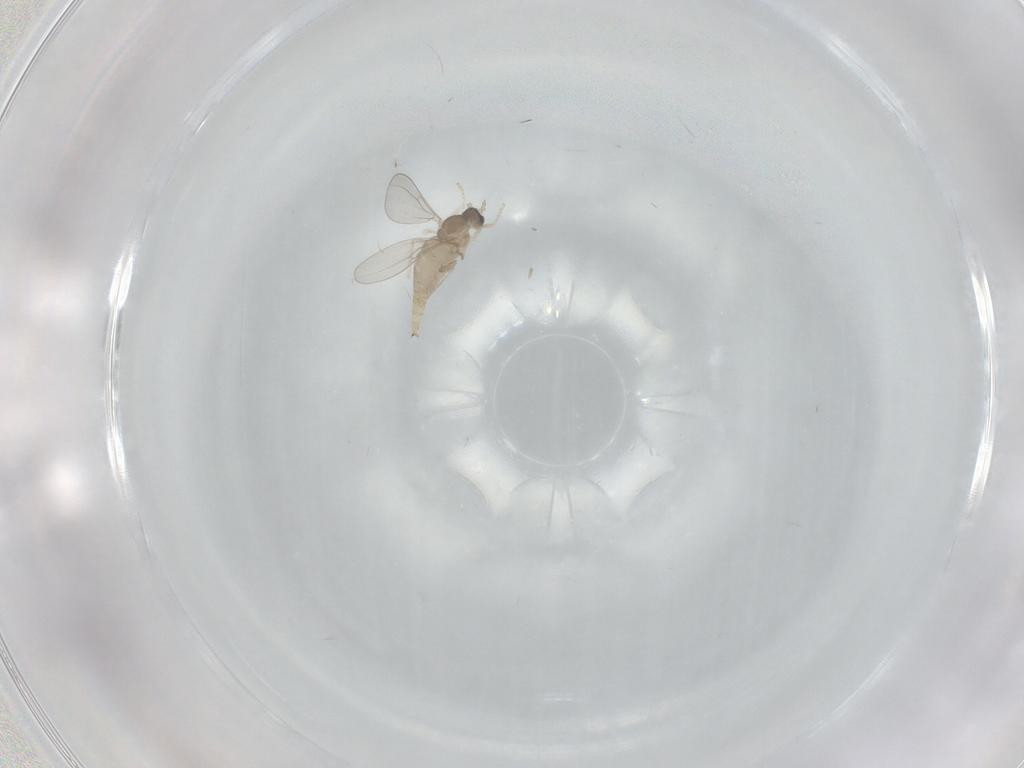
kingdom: Animalia
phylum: Arthropoda
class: Insecta
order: Diptera
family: Cecidomyiidae
